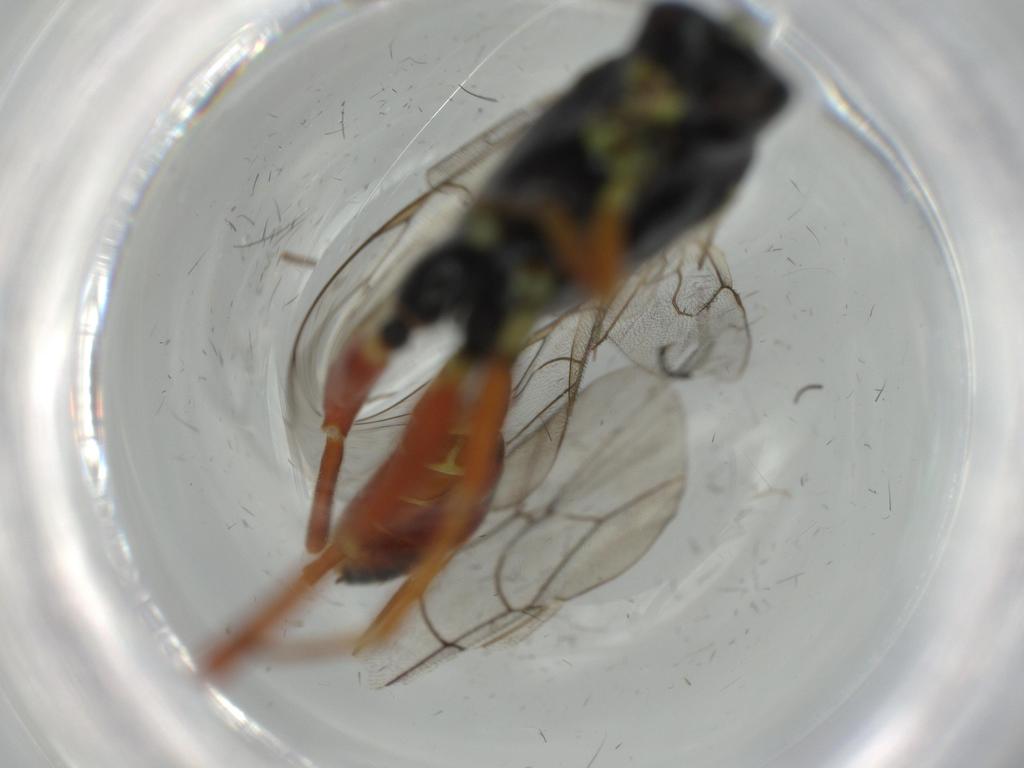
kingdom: Animalia
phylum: Arthropoda
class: Insecta
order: Hymenoptera
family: Ichneumonidae
